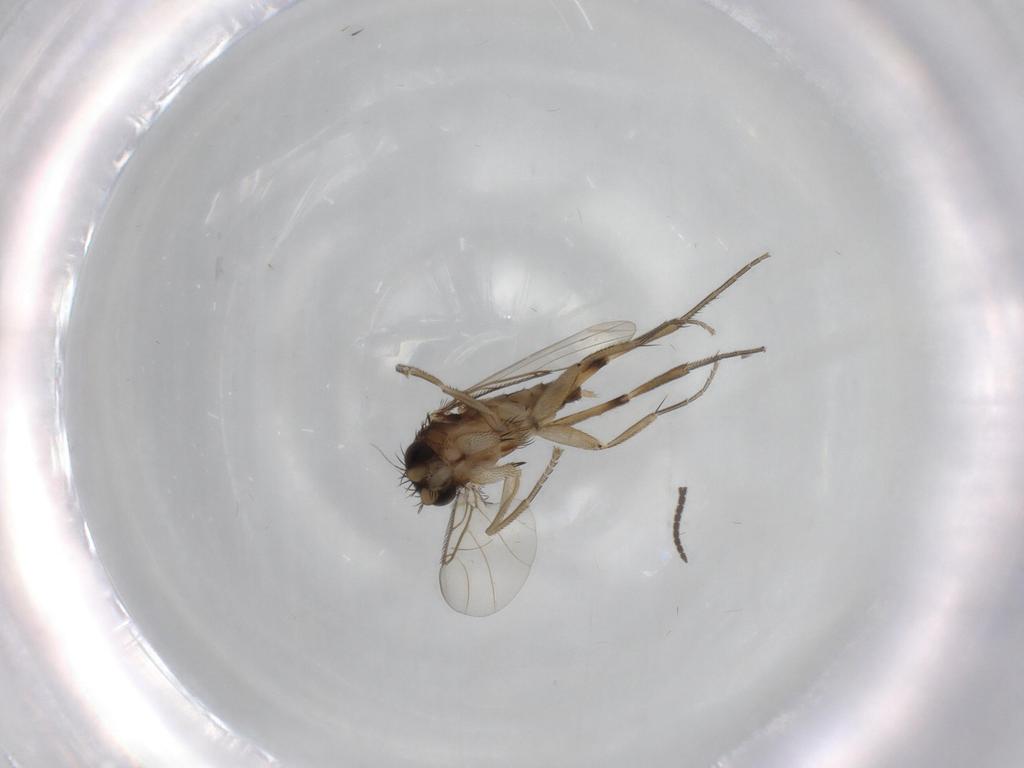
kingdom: Animalia
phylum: Arthropoda
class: Insecta
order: Diptera
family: Phoridae
